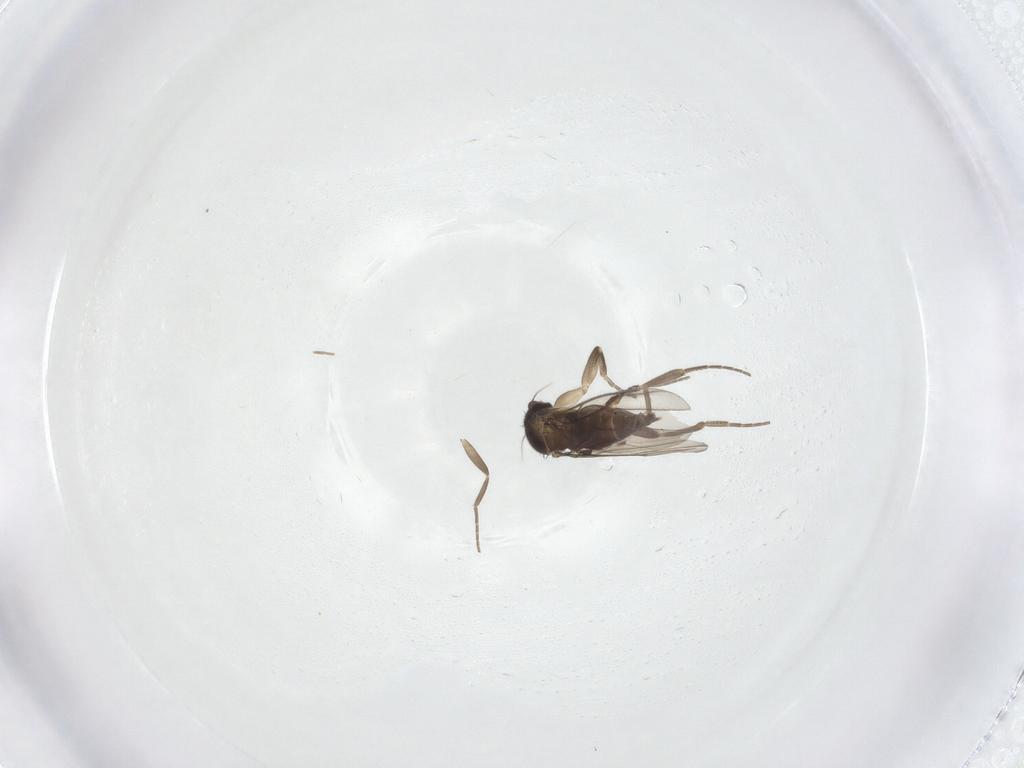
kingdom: Animalia
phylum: Arthropoda
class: Insecta
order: Diptera
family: Phoridae
